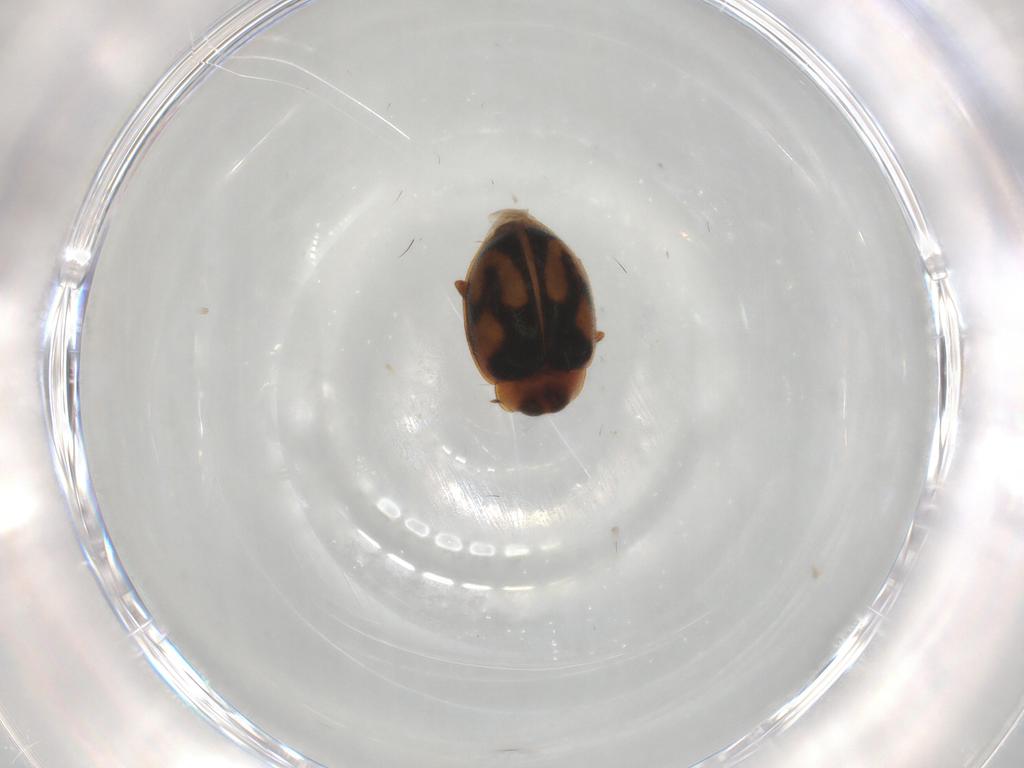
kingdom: Animalia
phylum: Arthropoda
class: Insecta
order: Coleoptera
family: Coccinellidae
